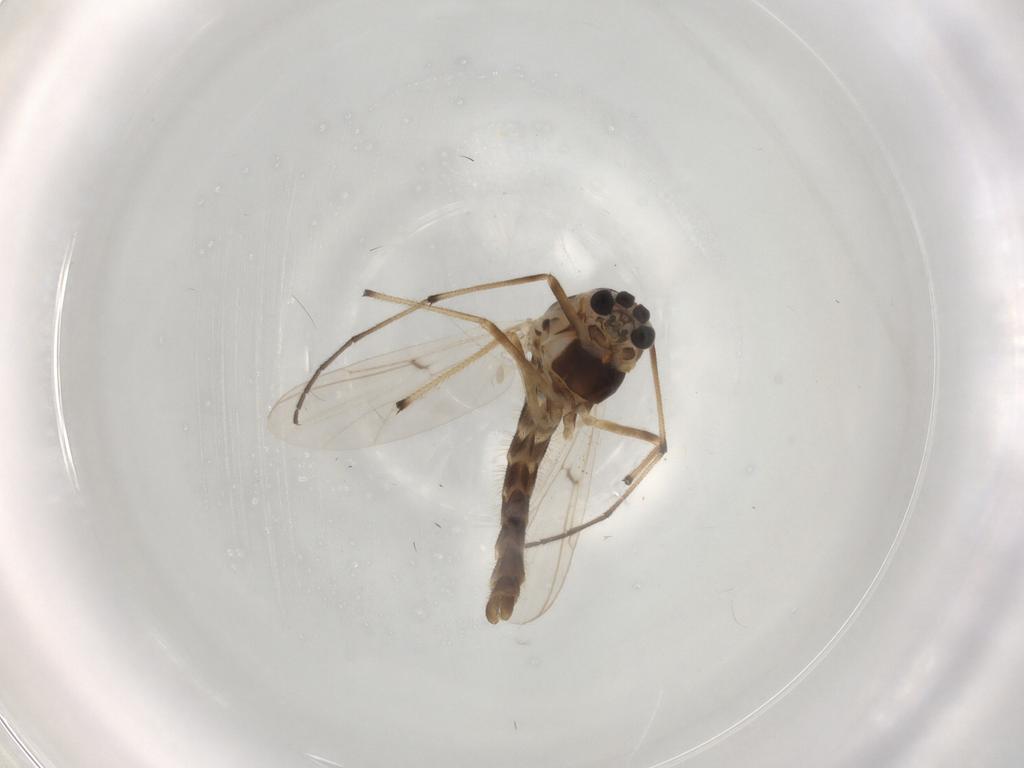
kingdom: Animalia
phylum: Arthropoda
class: Insecta
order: Diptera
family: Chironomidae
